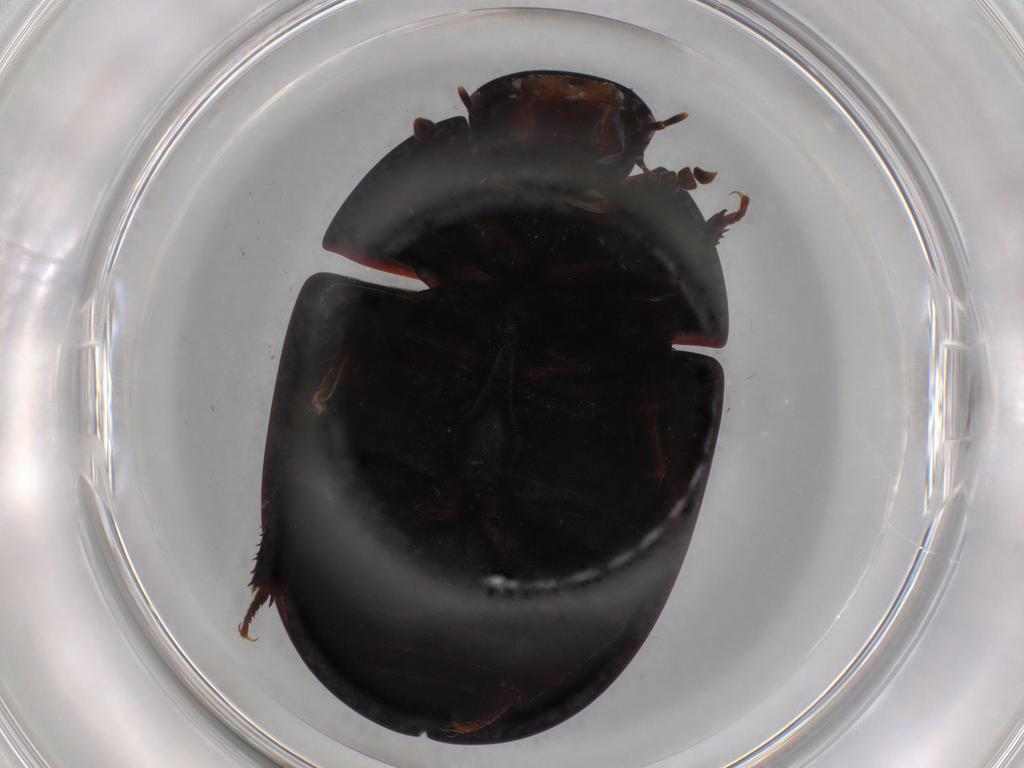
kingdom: Animalia
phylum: Arthropoda
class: Insecta
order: Coleoptera
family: Hydrophilidae
